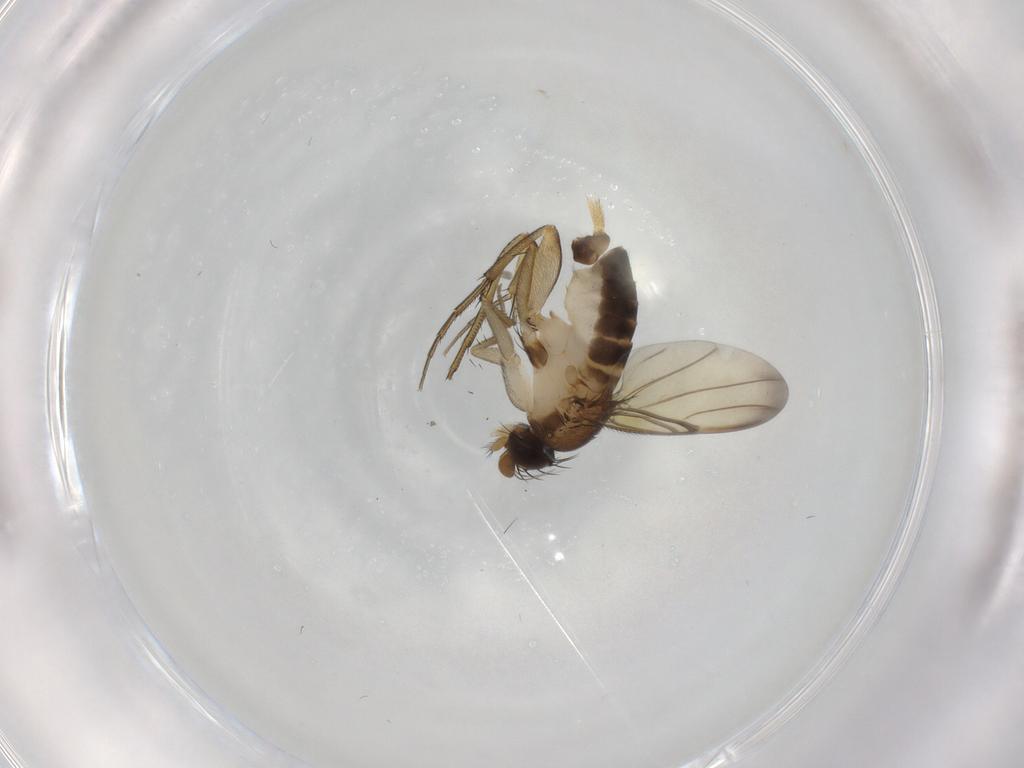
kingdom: Animalia
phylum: Arthropoda
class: Insecta
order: Diptera
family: Phoridae
